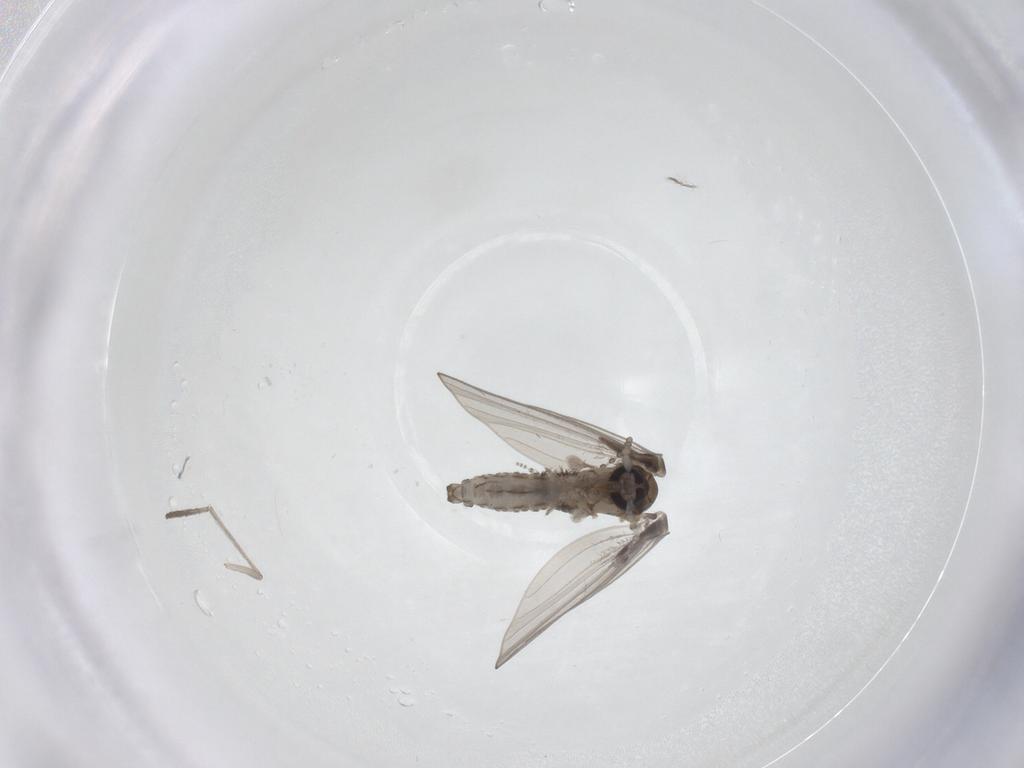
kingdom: Animalia
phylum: Arthropoda
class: Insecta
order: Diptera
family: Psychodidae
